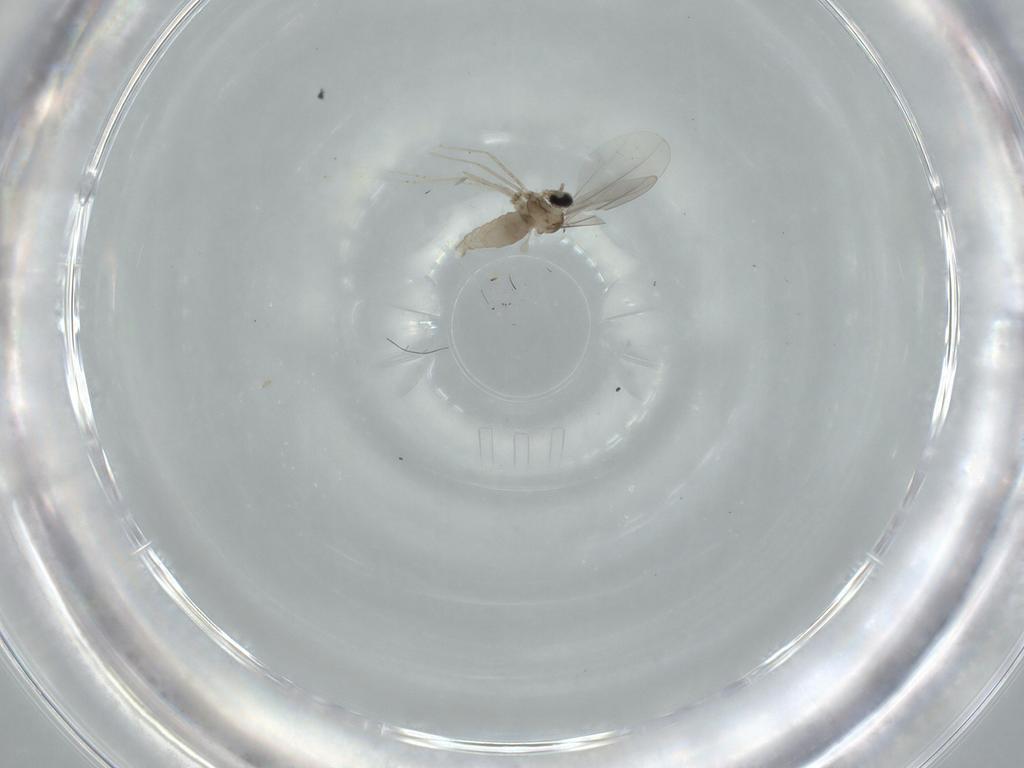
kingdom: Animalia
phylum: Arthropoda
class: Insecta
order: Diptera
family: Cecidomyiidae
